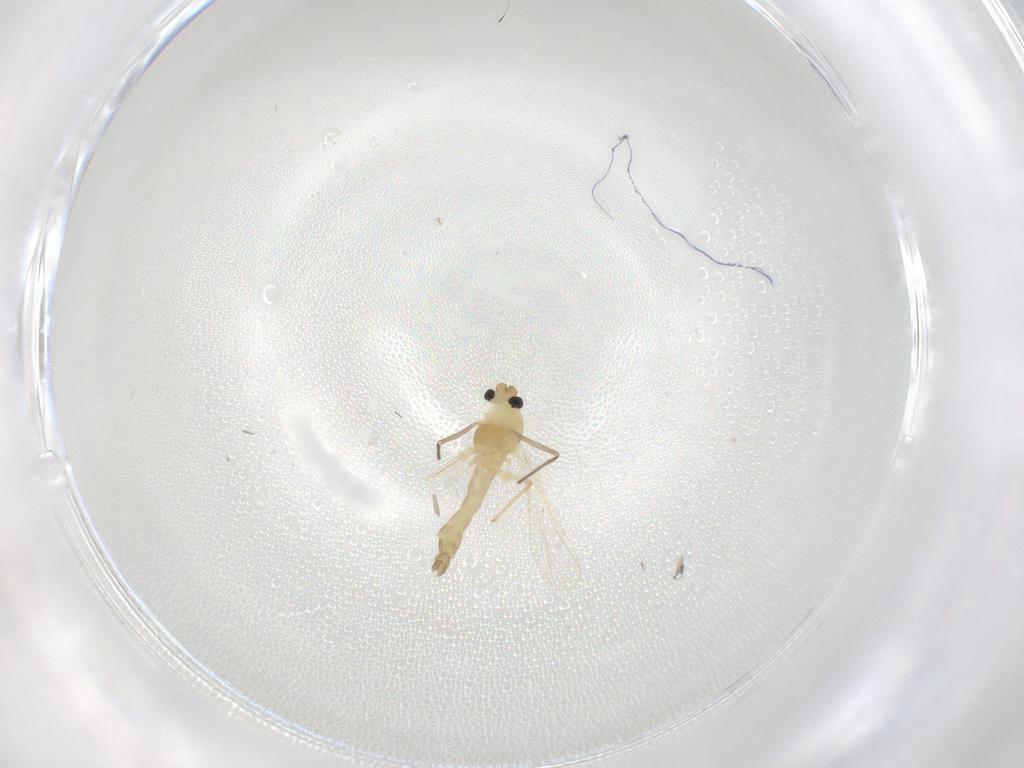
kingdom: Animalia
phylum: Arthropoda
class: Insecta
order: Diptera
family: Chironomidae
